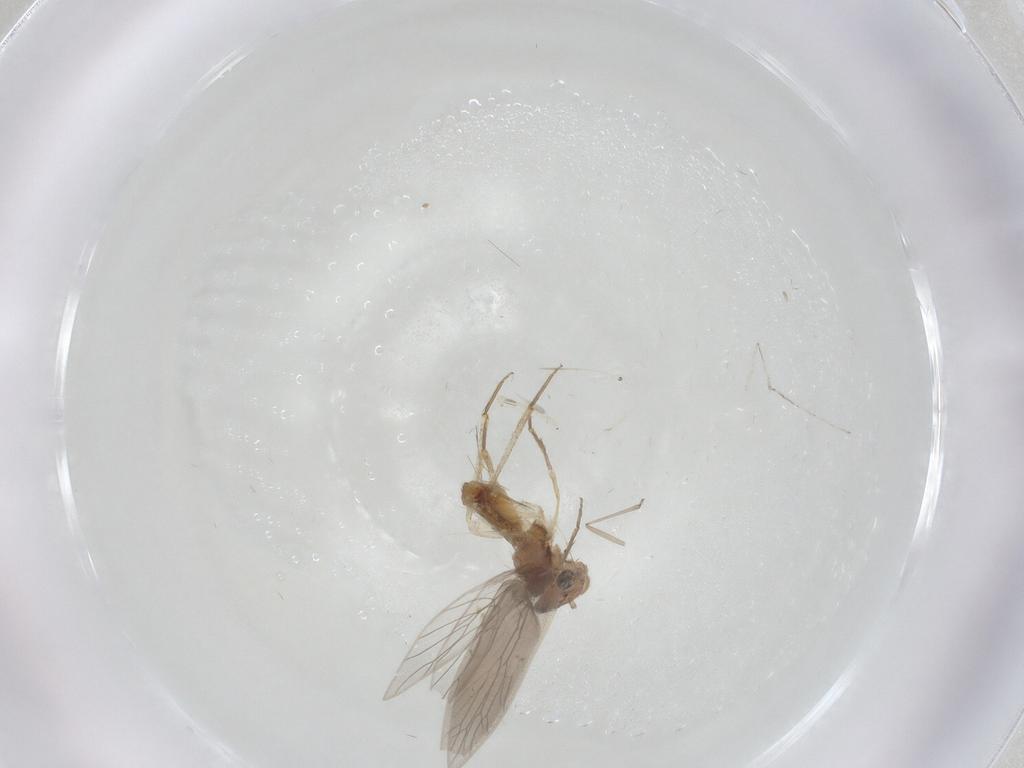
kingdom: Animalia
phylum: Arthropoda
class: Insecta
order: Psocodea
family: Lepidopsocidae
